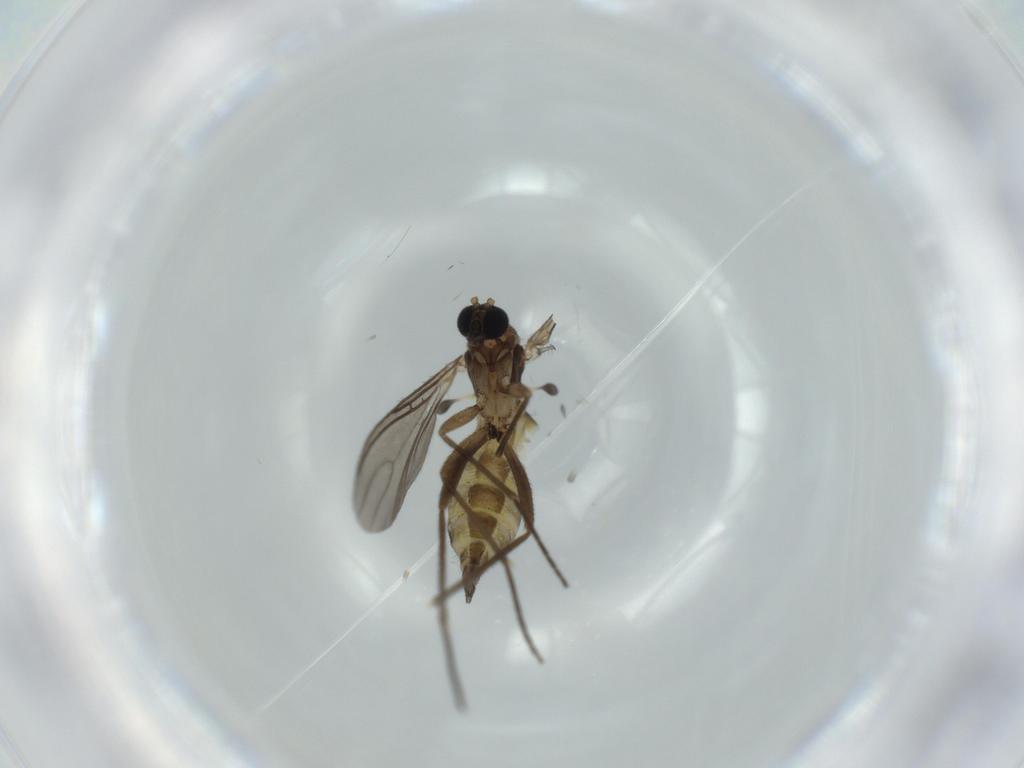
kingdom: Animalia
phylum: Arthropoda
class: Insecta
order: Diptera
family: Sciaridae
